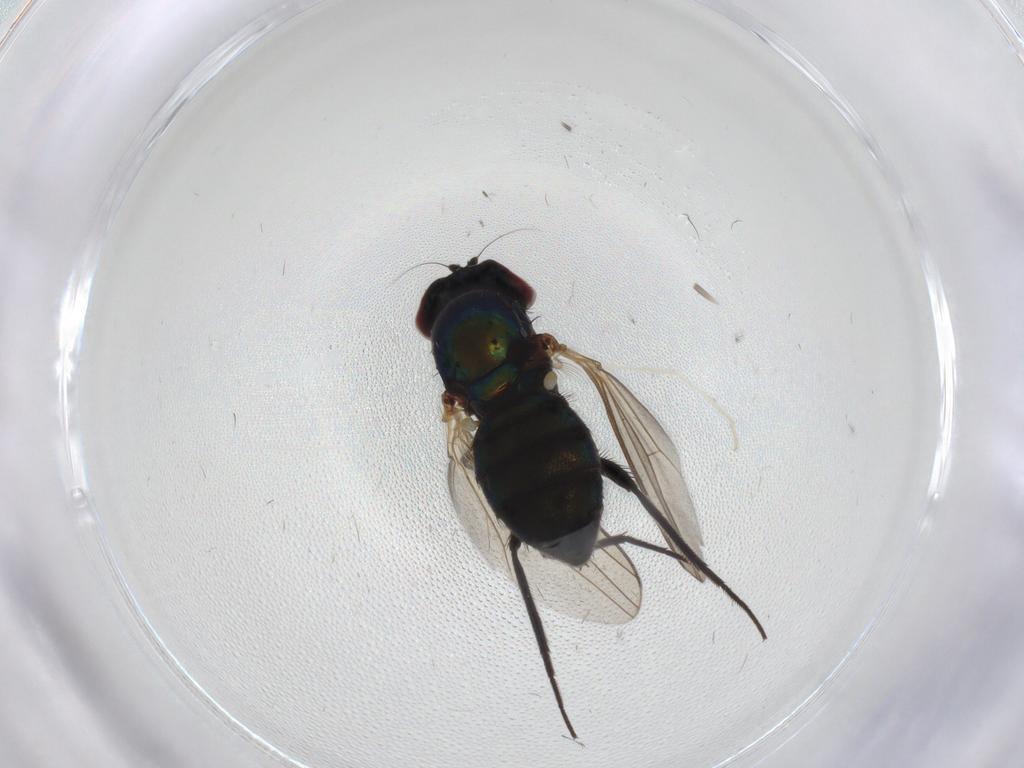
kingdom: Animalia
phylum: Arthropoda
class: Insecta
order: Diptera
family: Dolichopodidae
